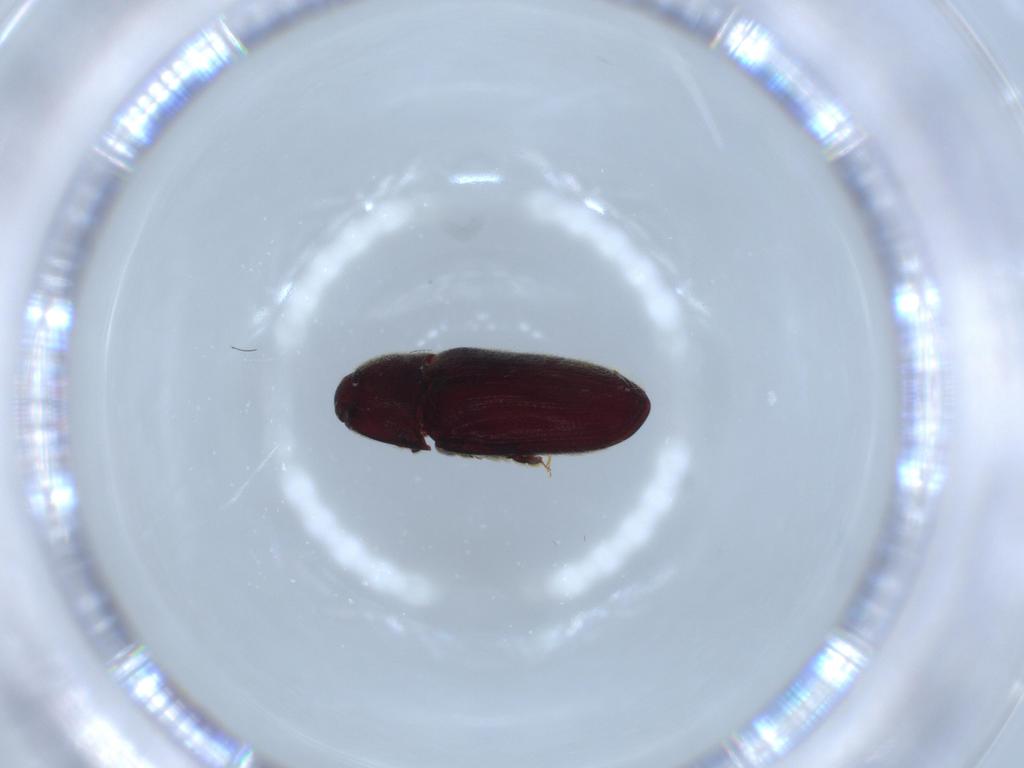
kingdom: Animalia
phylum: Arthropoda
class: Insecta
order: Coleoptera
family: Throscidae
